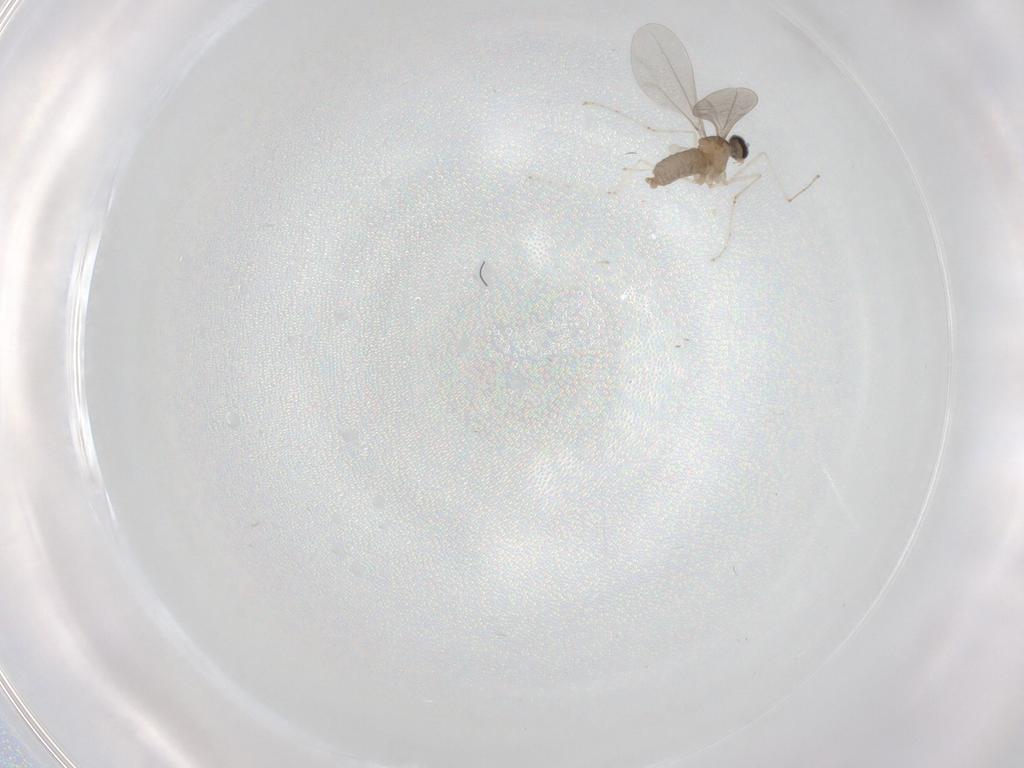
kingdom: Animalia
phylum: Arthropoda
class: Insecta
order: Diptera
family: Cecidomyiidae
